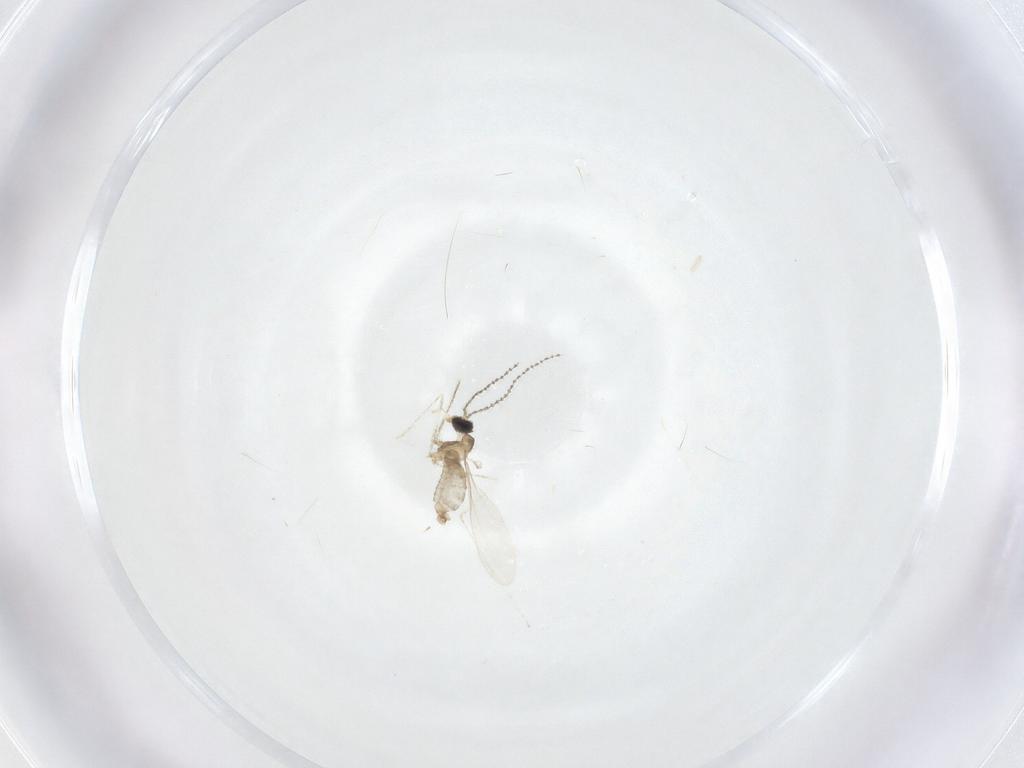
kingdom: Animalia
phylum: Arthropoda
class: Insecta
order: Diptera
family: Cecidomyiidae
